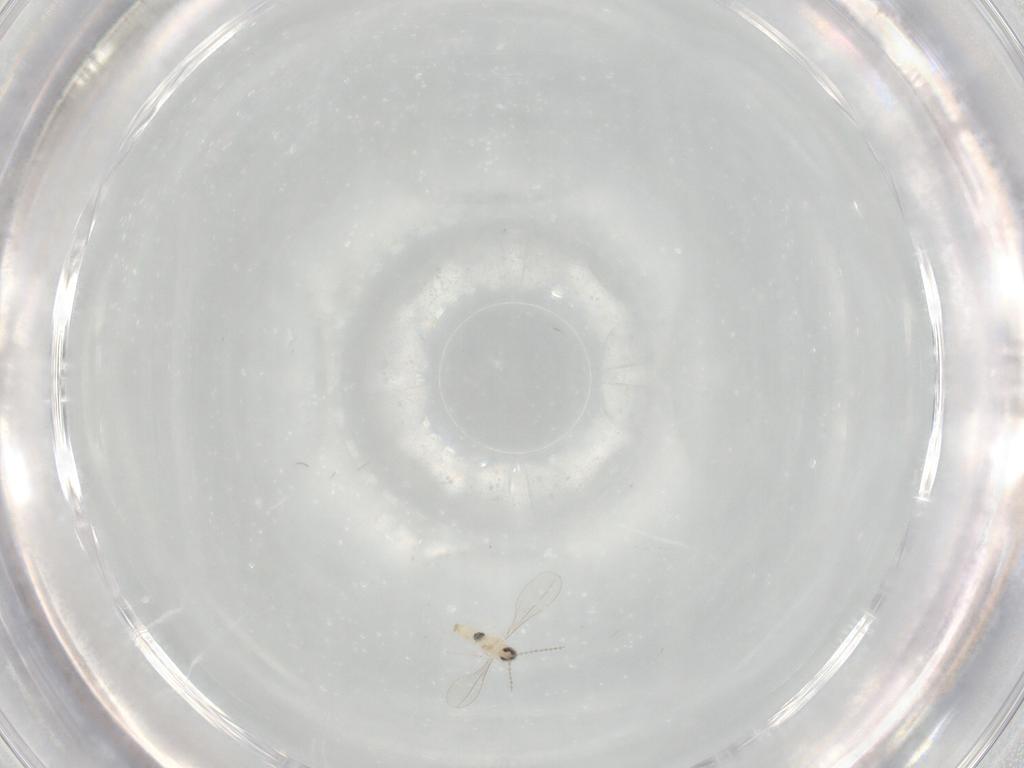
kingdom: Animalia
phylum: Arthropoda
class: Insecta
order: Diptera
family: Cecidomyiidae
